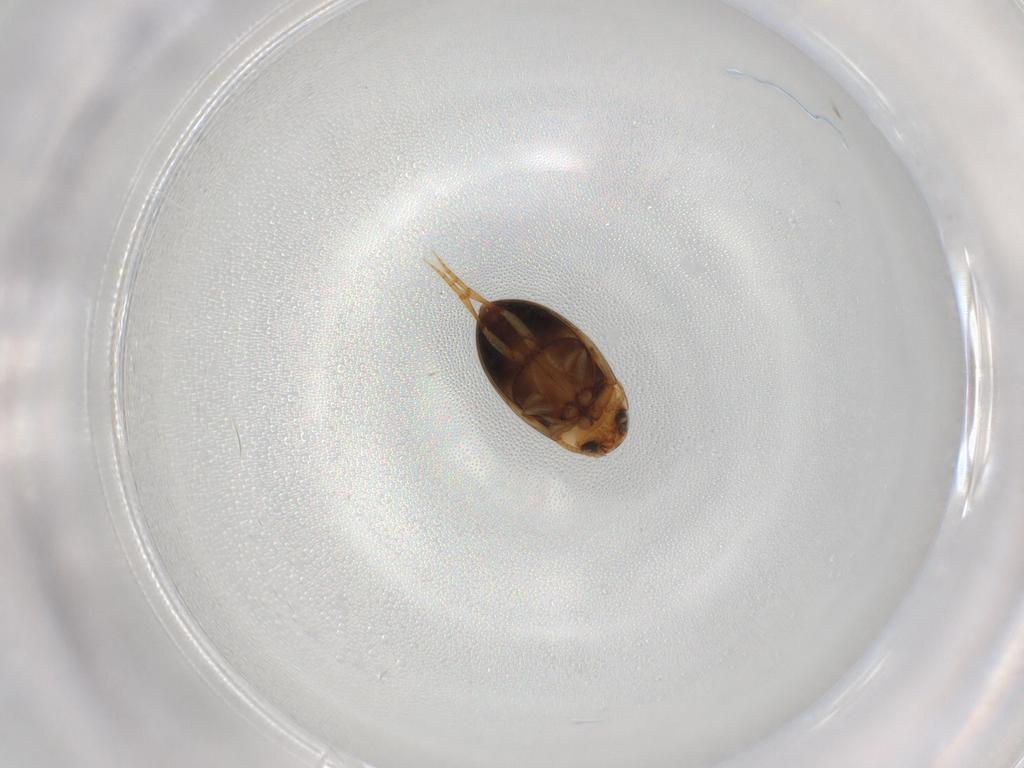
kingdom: Animalia
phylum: Arthropoda
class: Insecta
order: Coleoptera
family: Dytiscidae
